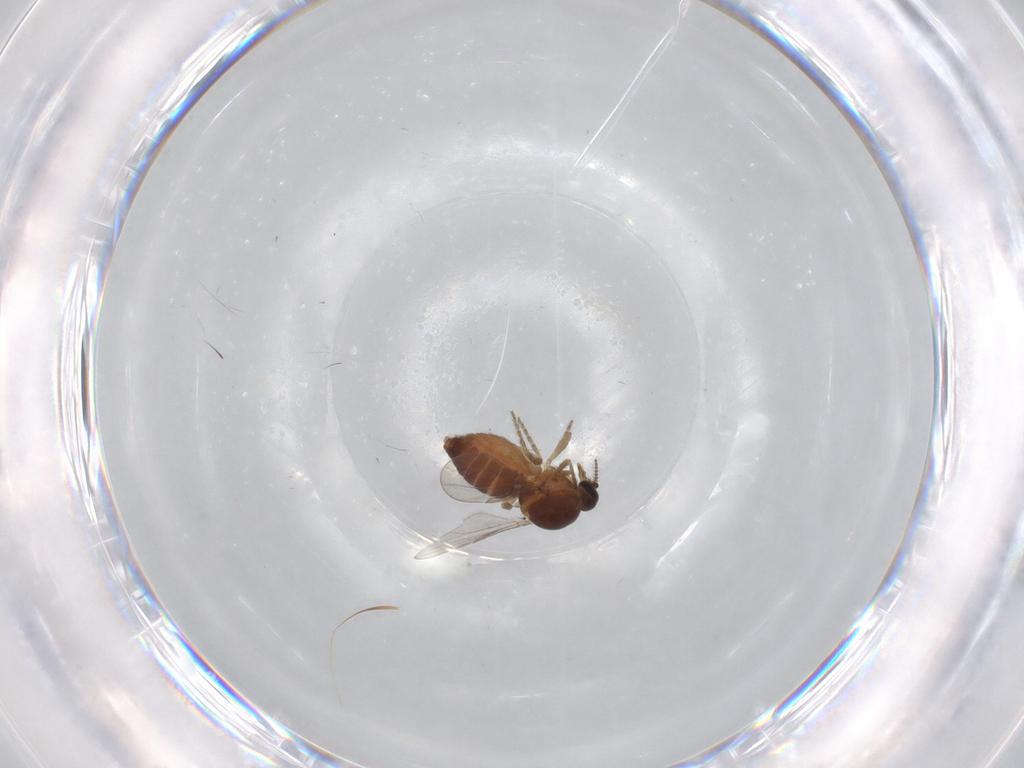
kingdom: Animalia
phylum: Arthropoda
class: Insecta
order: Diptera
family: Ceratopogonidae
